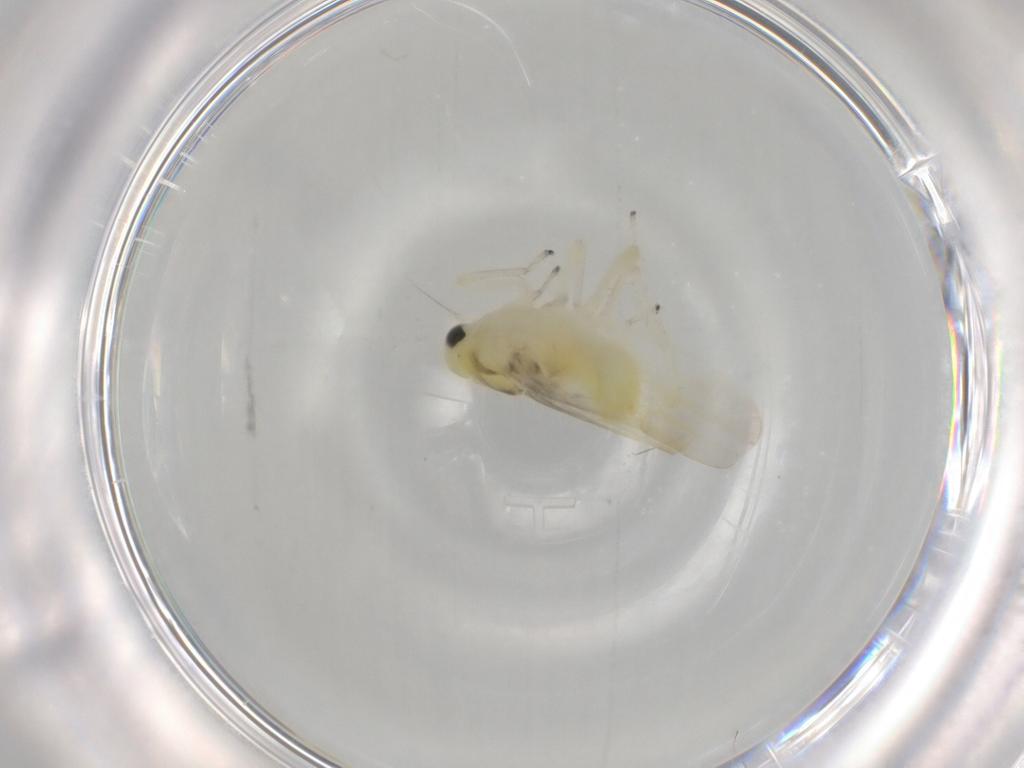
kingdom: Animalia
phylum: Arthropoda
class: Insecta
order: Hemiptera
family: Cicadellidae
